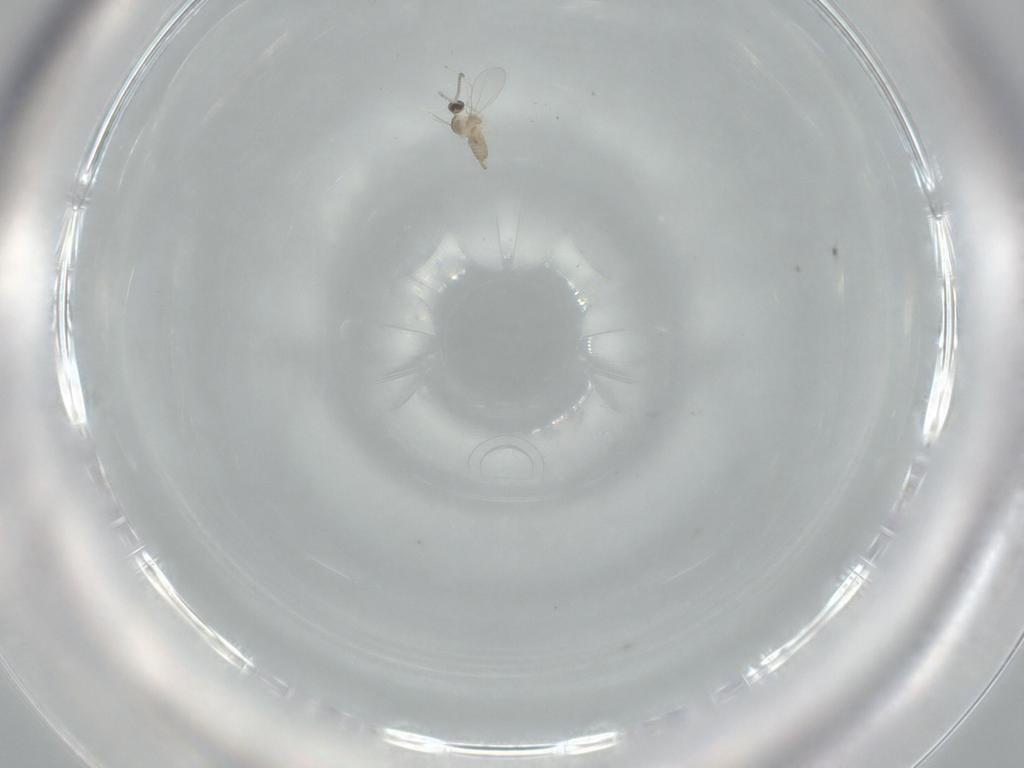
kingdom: Animalia
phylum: Arthropoda
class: Insecta
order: Diptera
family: Cecidomyiidae
